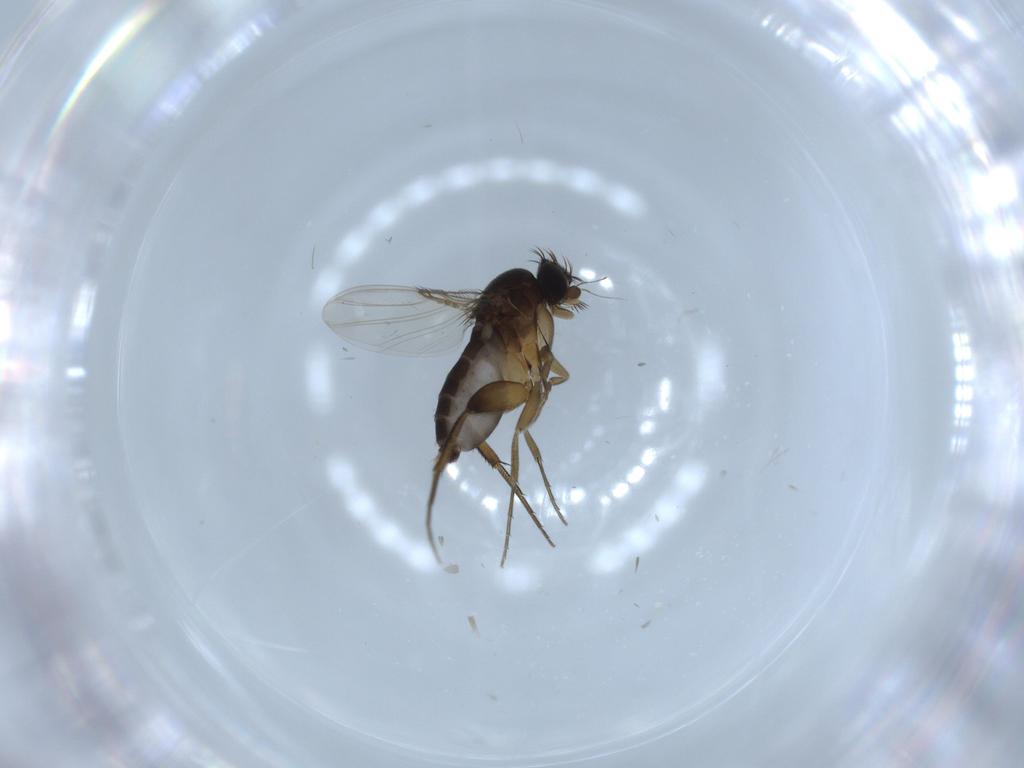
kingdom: Animalia
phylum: Arthropoda
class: Insecta
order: Diptera
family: Phoridae
